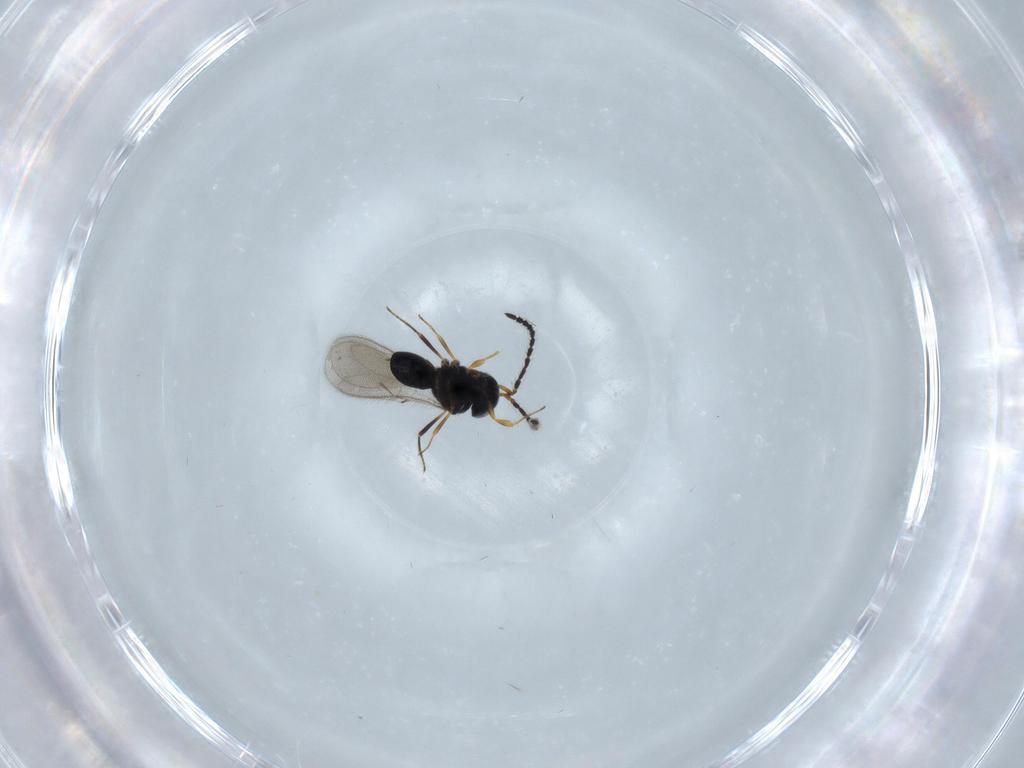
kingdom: Animalia
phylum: Arthropoda
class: Insecta
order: Hymenoptera
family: Scelionidae
